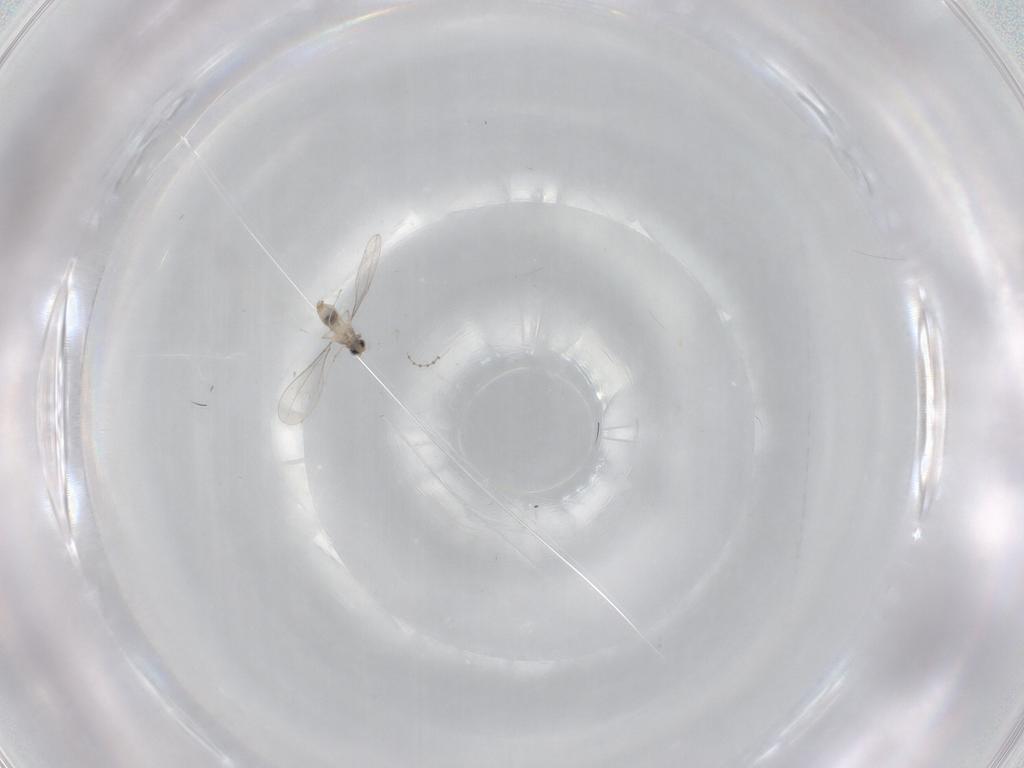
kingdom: Animalia
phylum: Arthropoda
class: Insecta
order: Diptera
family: Cecidomyiidae
